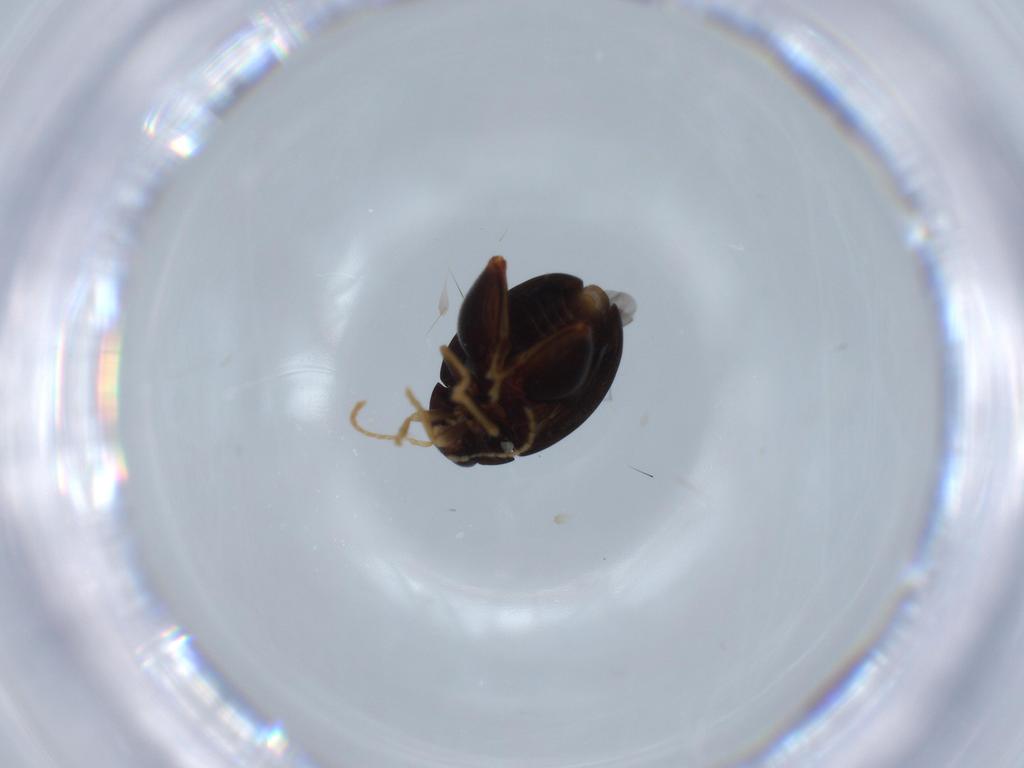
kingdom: Animalia
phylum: Arthropoda
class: Insecta
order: Coleoptera
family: Chrysomelidae
